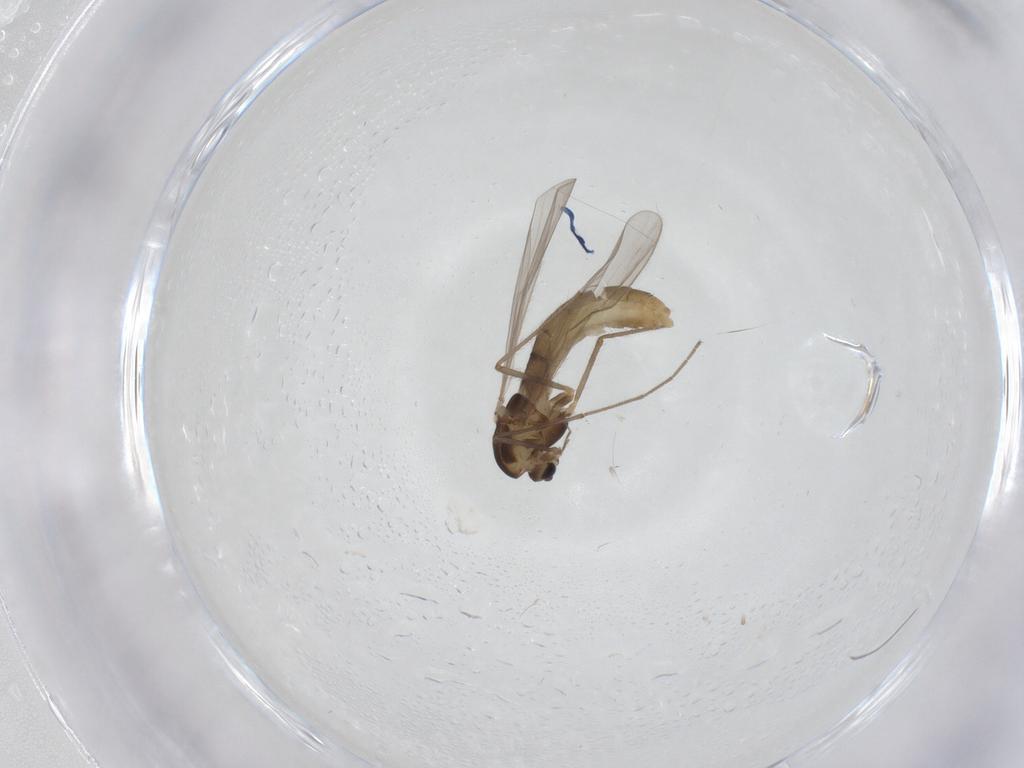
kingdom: Animalia
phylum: Arthropoda
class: Insecta
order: Diptera
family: Chironomidae
